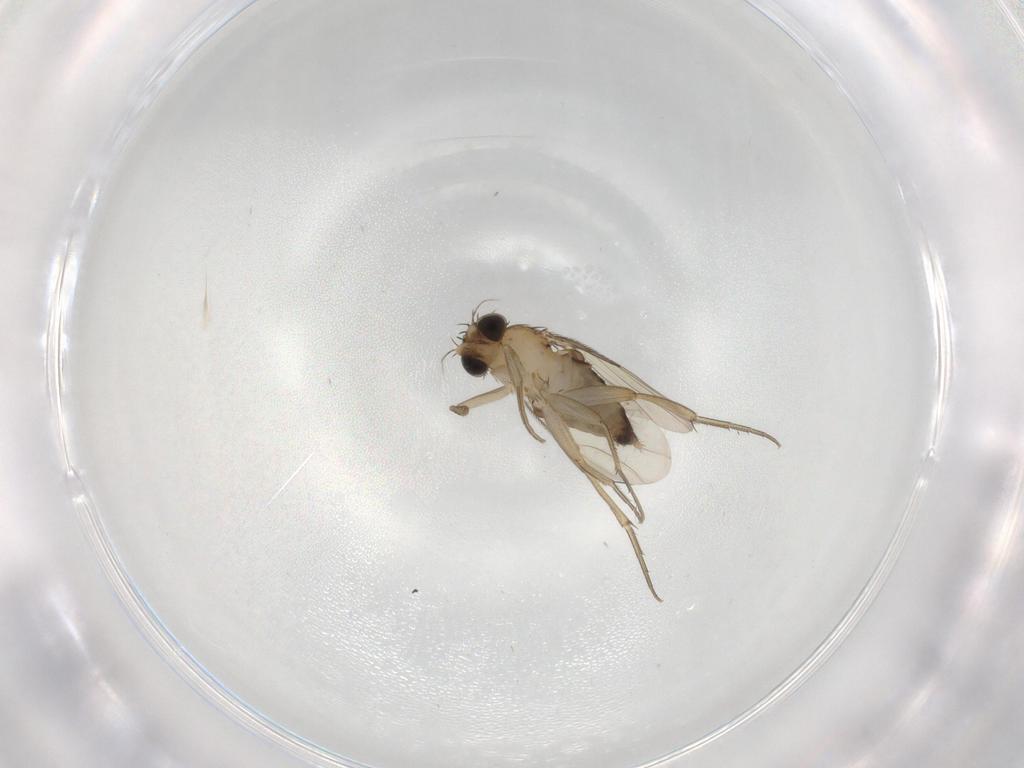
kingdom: Animalia
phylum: Arthropoda
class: Insecta
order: Diptera
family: Phoridae
